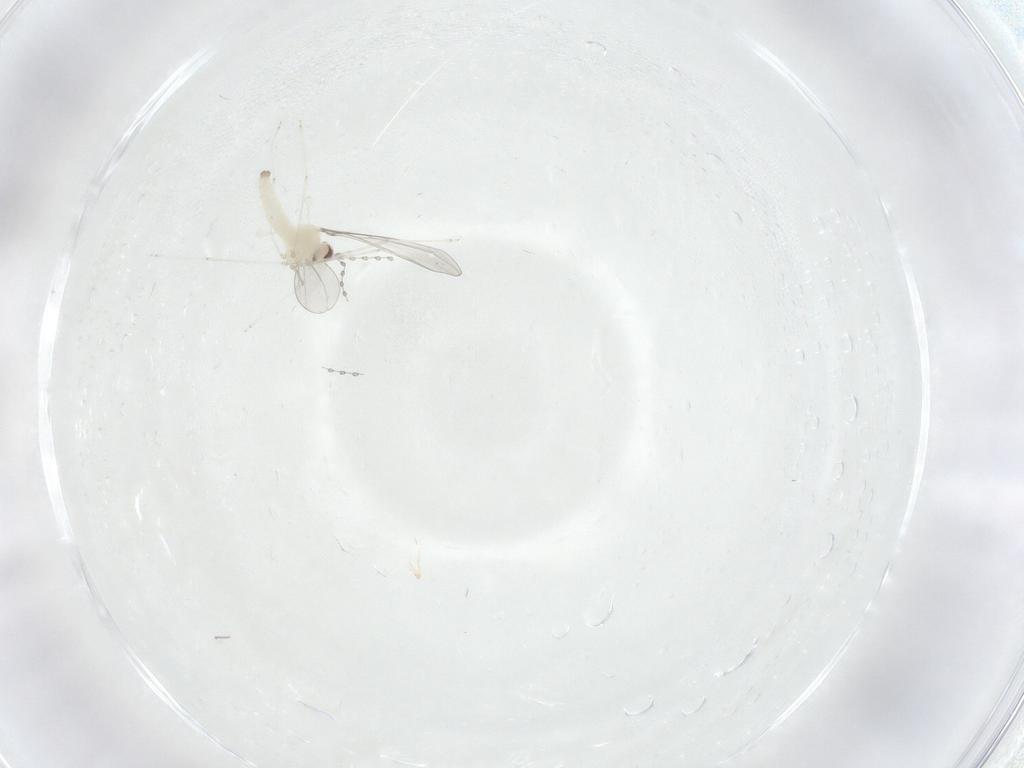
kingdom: Animalia
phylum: Arthropoda
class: Insecta
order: Diptera
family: Cecidomyiidae
